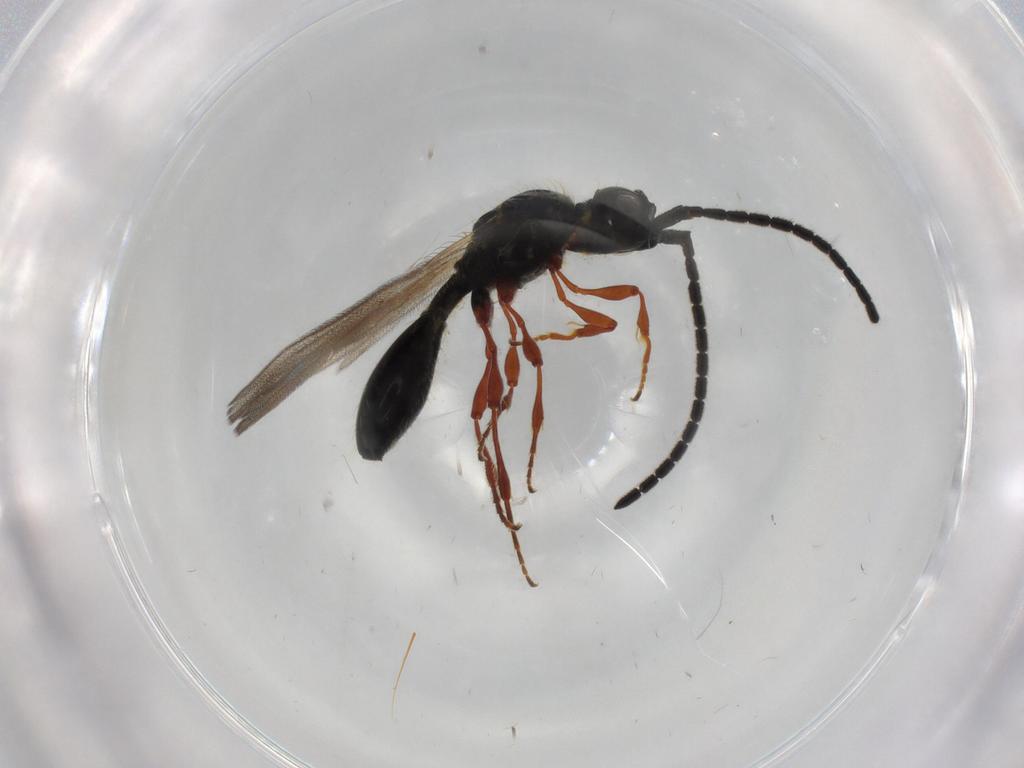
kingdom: Animalia
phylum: Arthropoda
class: Insecta
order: Hymenoptera
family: Diapriidae
